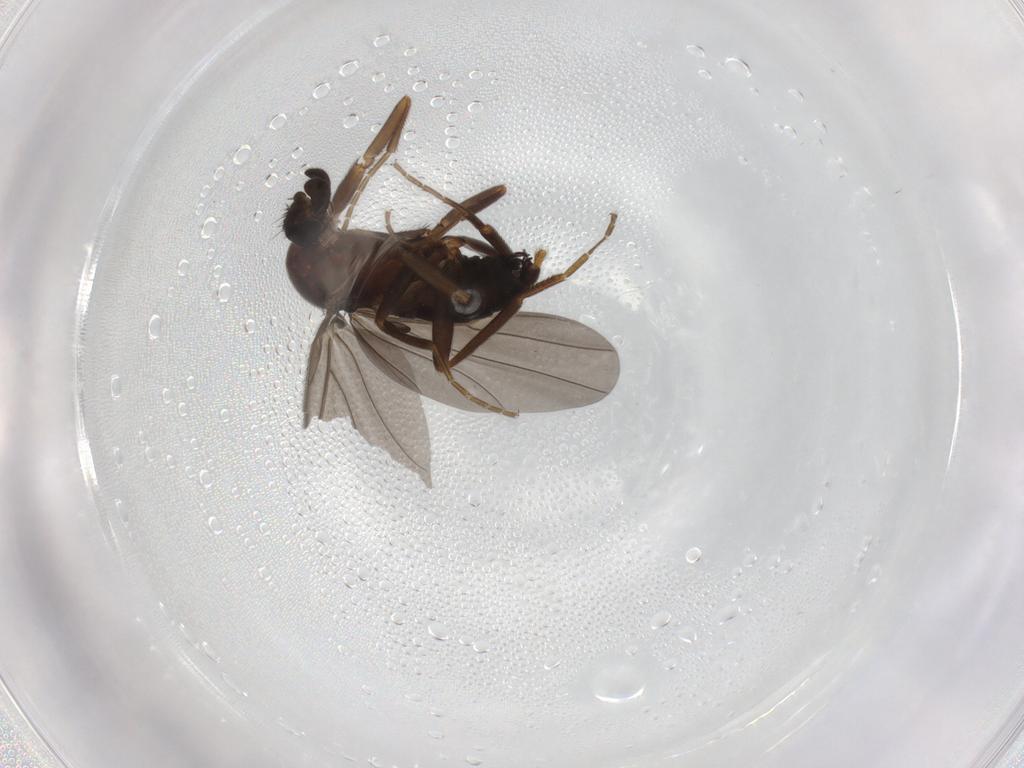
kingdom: Animalia
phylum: Arthropoda
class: Insecta
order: Diptera
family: Phoridae
